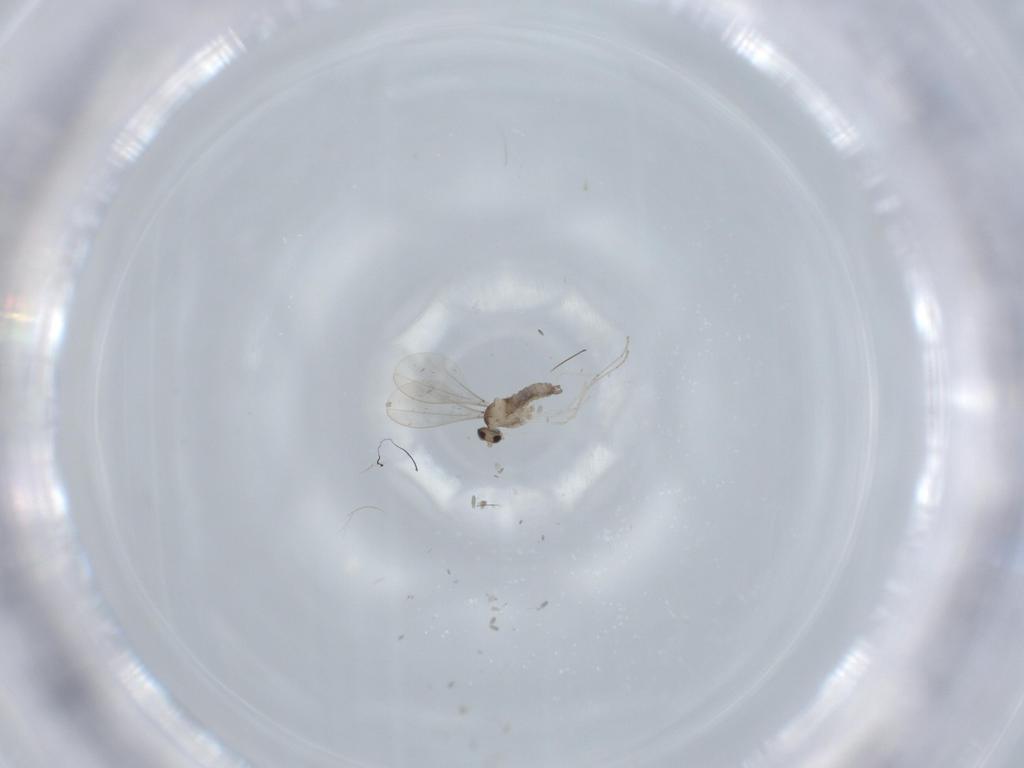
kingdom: Animalia
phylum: Arthropoda
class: Insecta
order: Diptera
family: Cecidomyiidae
